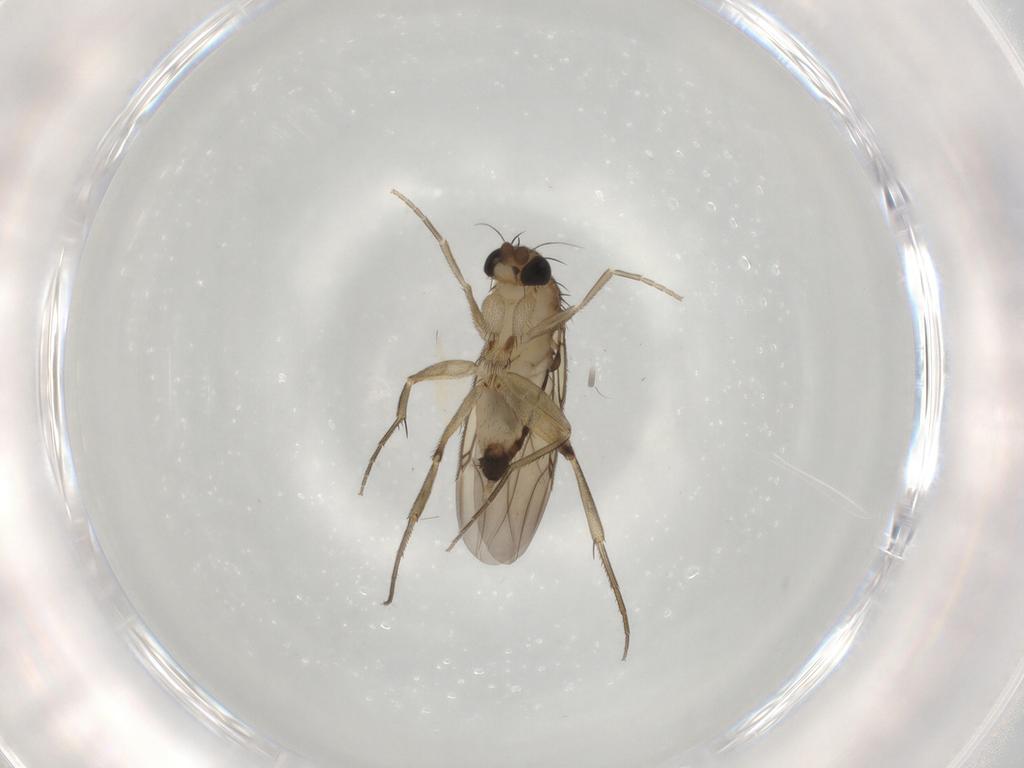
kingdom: Animalia
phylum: Arthropoda
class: Insecta
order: Diptera
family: Phoridae
